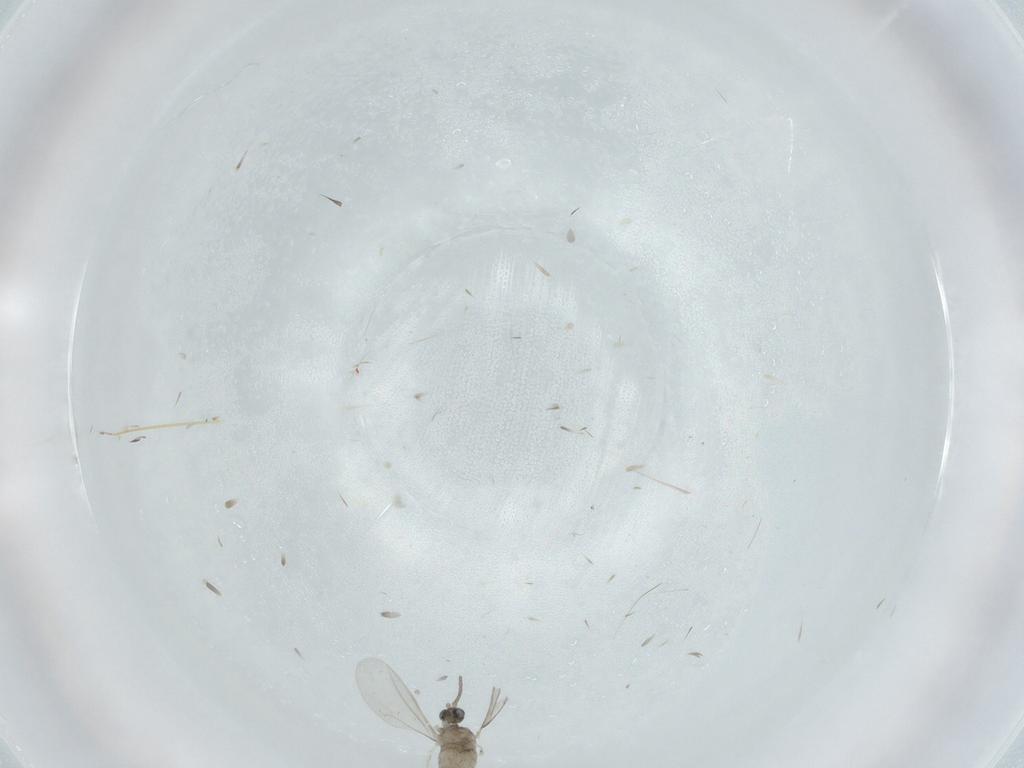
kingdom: Animalia
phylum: Arthropoda
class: Insecta
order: Diptera
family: Cecidomyiidae
